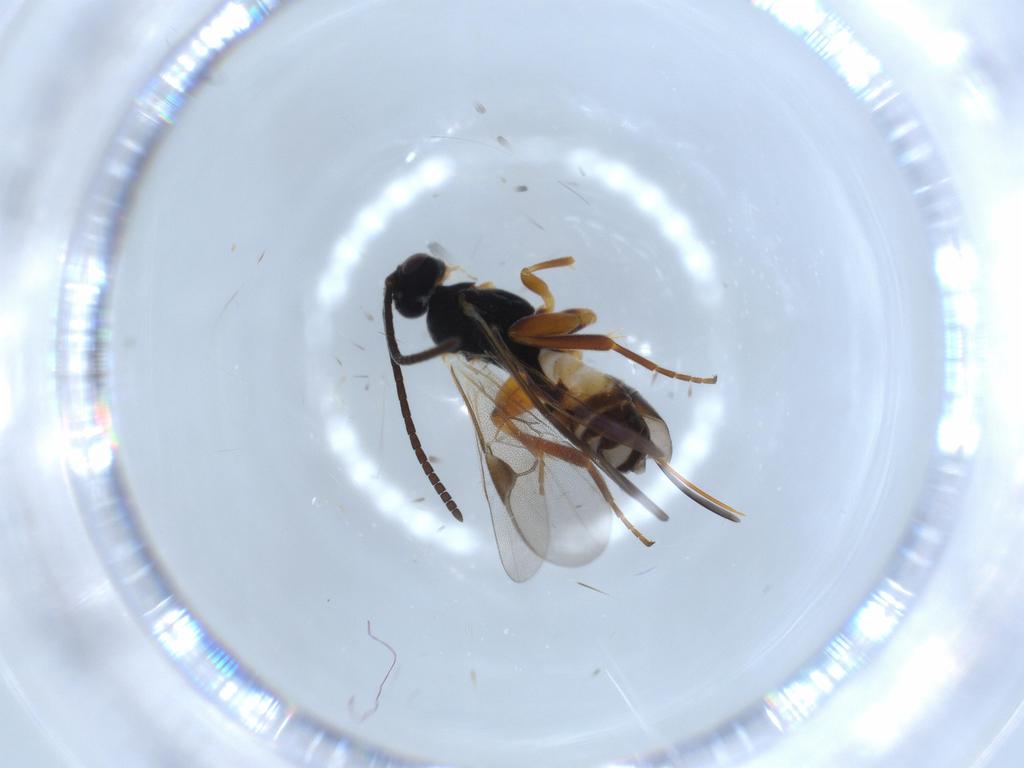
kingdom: Animalia
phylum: Arthropoda
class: Insecta
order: Hymenoptera
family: Braconidae
